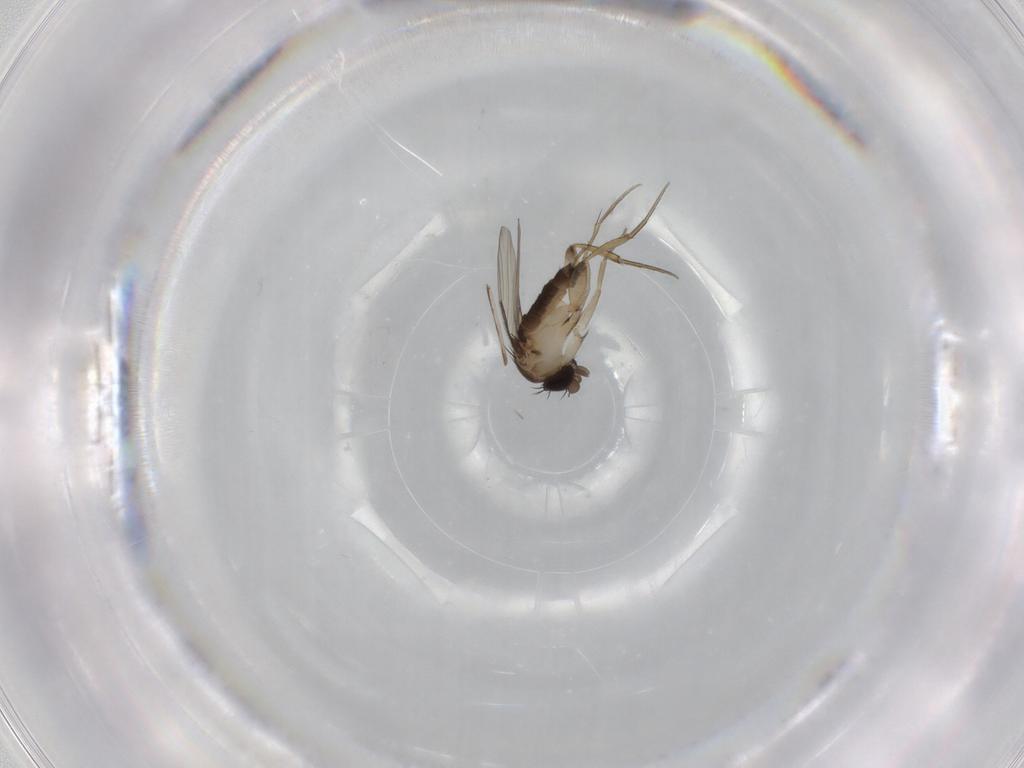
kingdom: Animalia
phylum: Arthropoda
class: Insecta
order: Diptera
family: Phoridae
